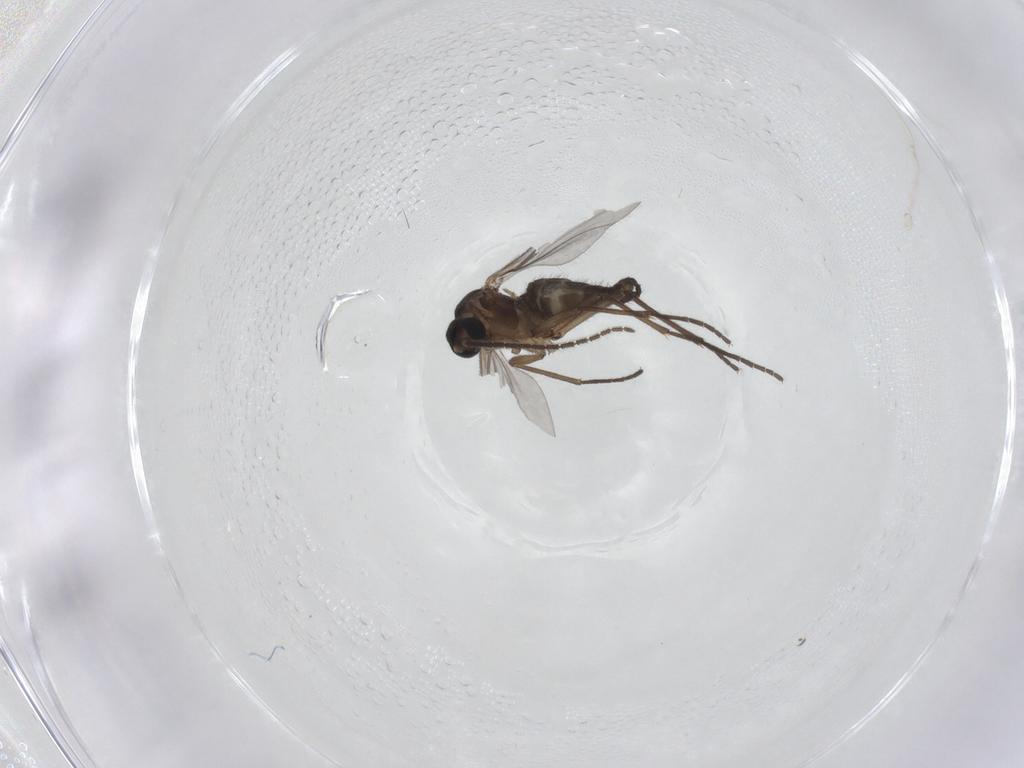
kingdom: Animalia
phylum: Arthropoda
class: Insecta
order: Diptera
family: Sciaridae
